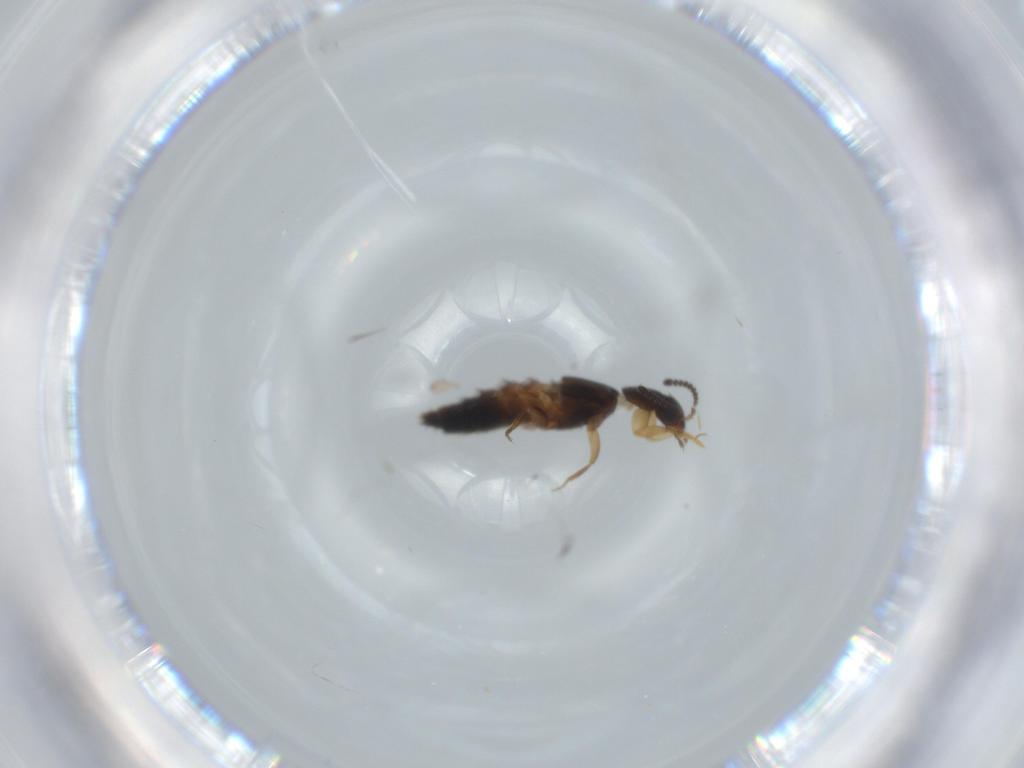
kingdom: Animalia
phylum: Arthropoda
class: Insecta
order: Coleoptera
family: Staphylinidae
